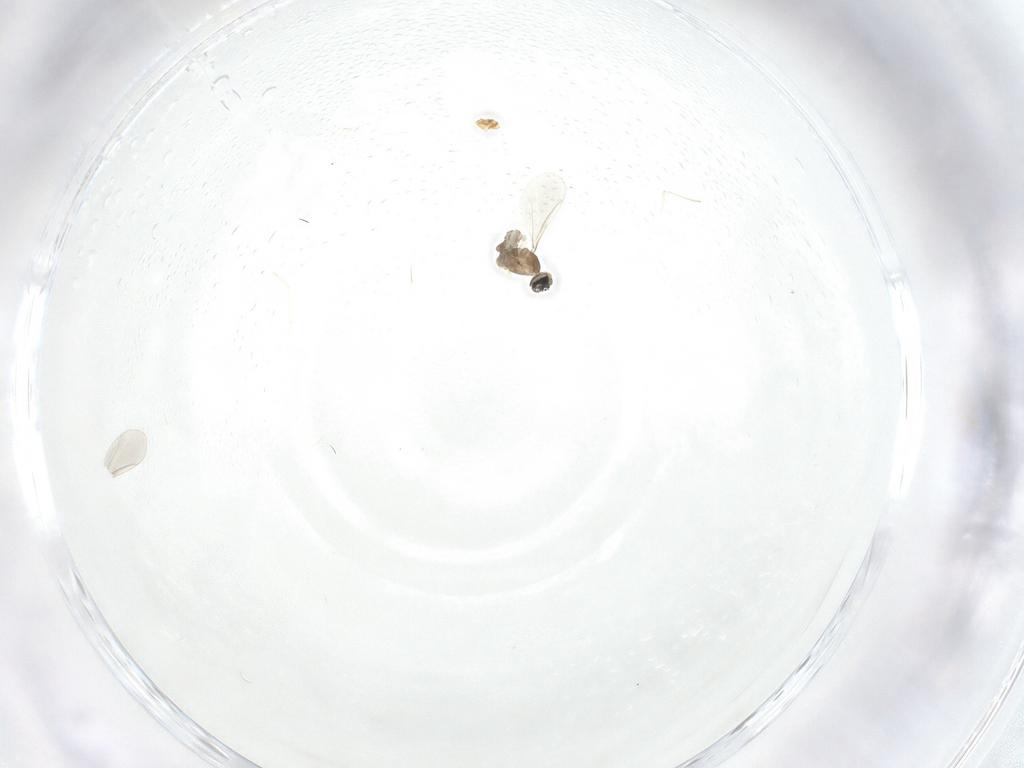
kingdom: Animalia
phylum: Arthropoda
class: Insecta
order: Diptera
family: Cecidomyiidae
